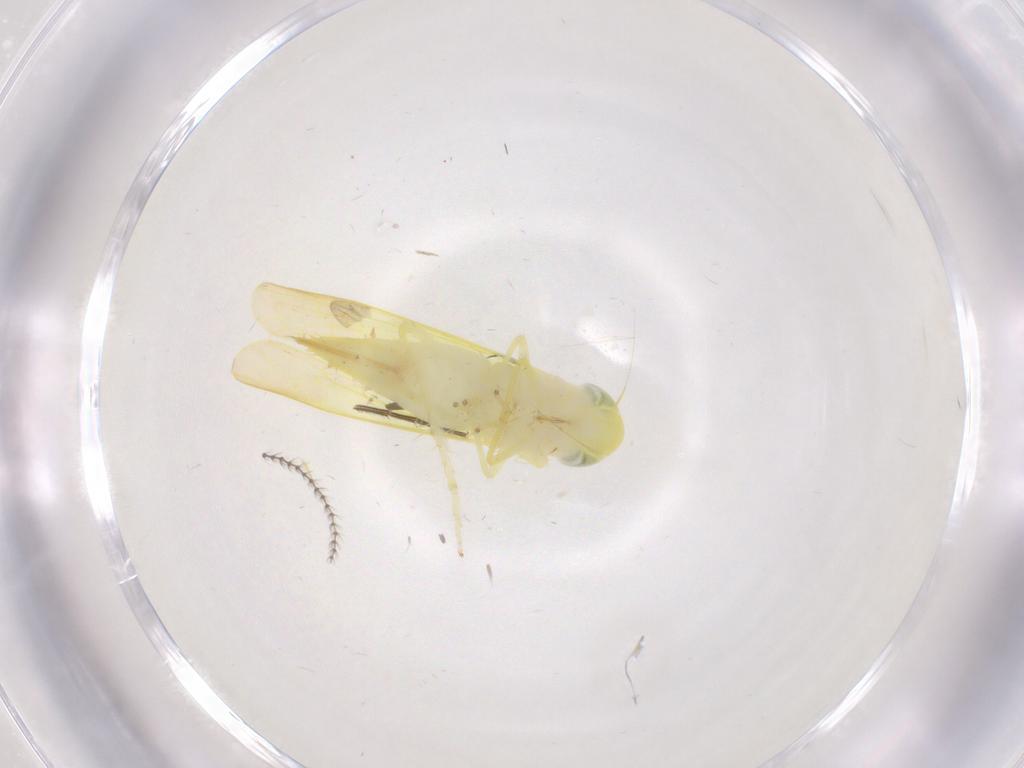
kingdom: Animalia
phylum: Arthropoda
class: Insecta
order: Hemiptera
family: Cicadellidae
